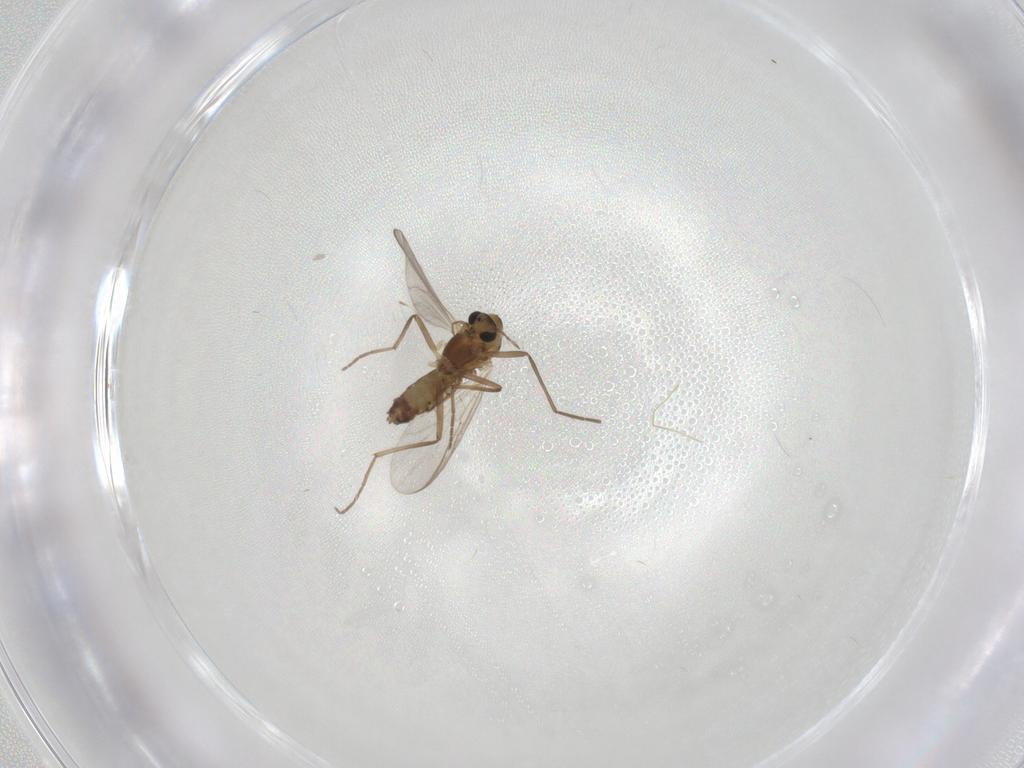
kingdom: Animalia
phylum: Arthropoda
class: Insecta
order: Diptera
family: Chironomidae
